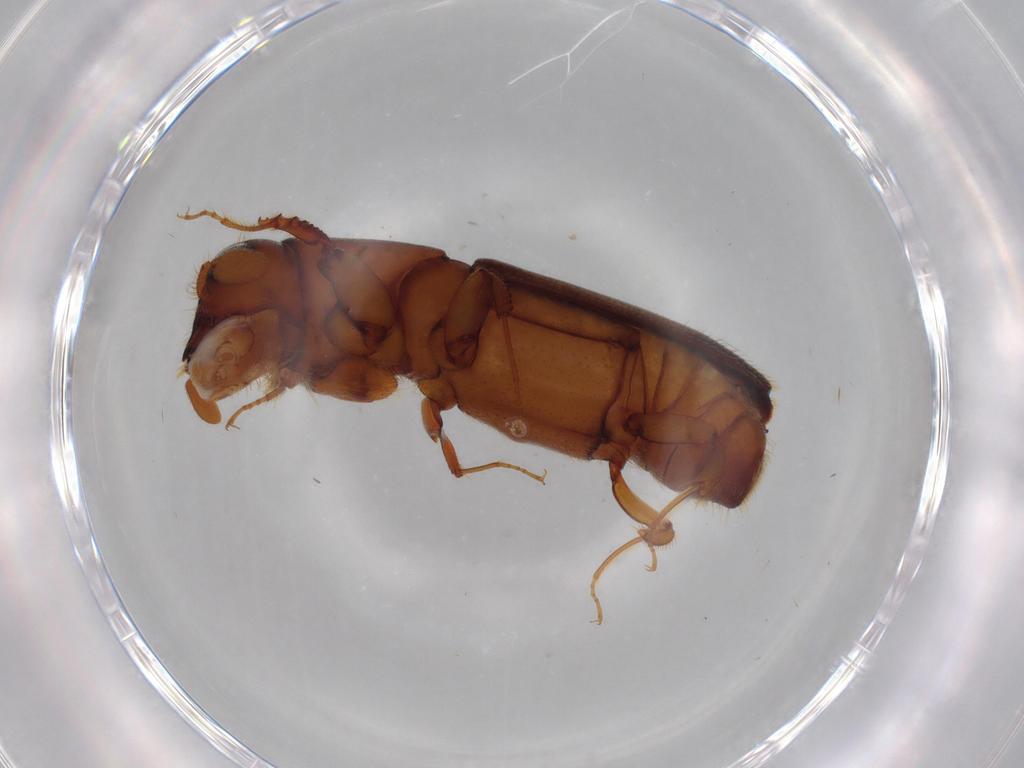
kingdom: Animalia
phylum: Arthropoda
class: Insecta
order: Coleoptera
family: Curculionidae
